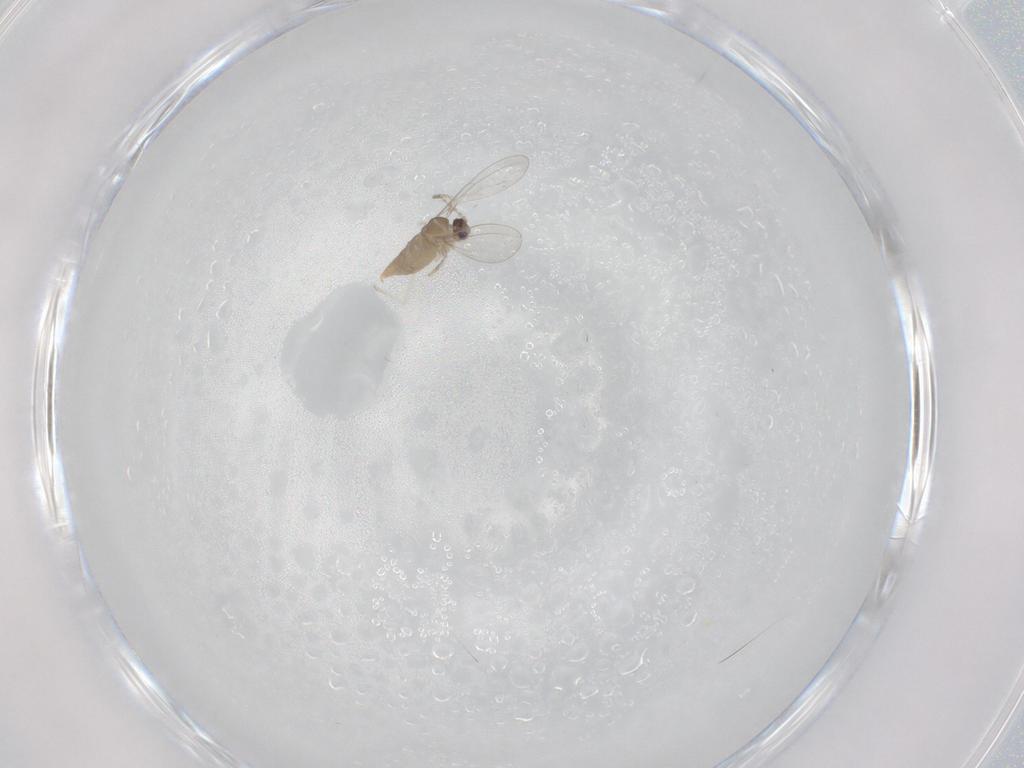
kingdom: Animalia
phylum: Arthropoda
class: Insecta
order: Diptera
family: Cecidomyiidae
